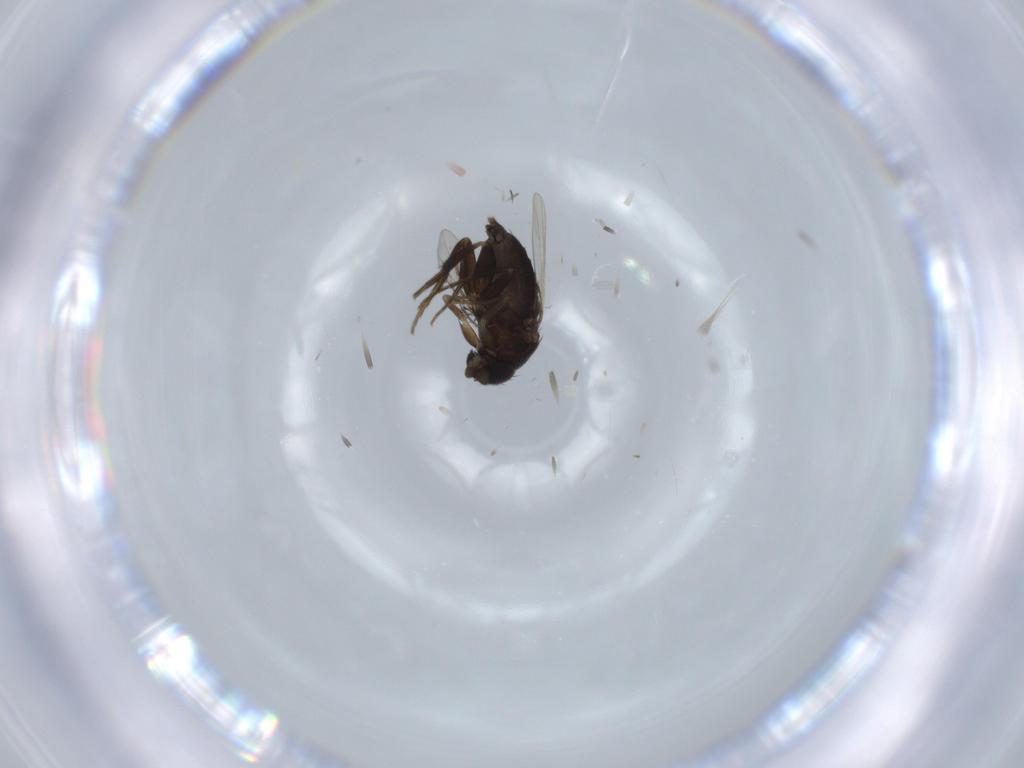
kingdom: Animalia
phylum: Arthropoda
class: Insecta
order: Diptera
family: Phoridae
